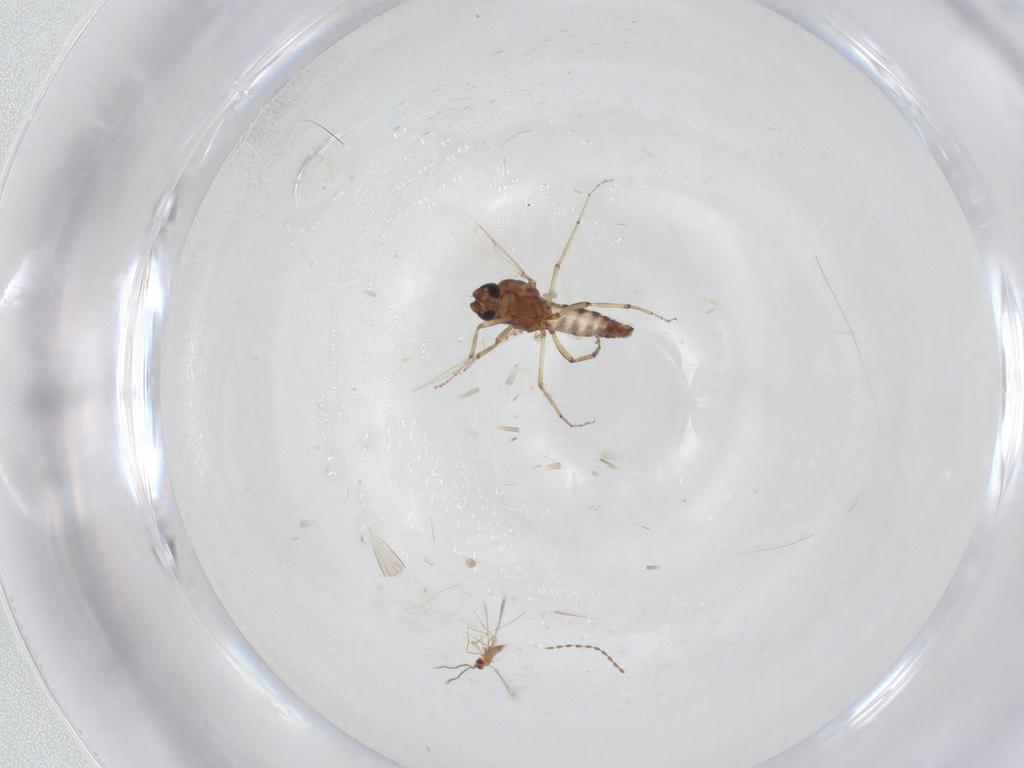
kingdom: Animalia
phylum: Arthropoda
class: Insecta
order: Diptera
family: Ceratopogonidae
